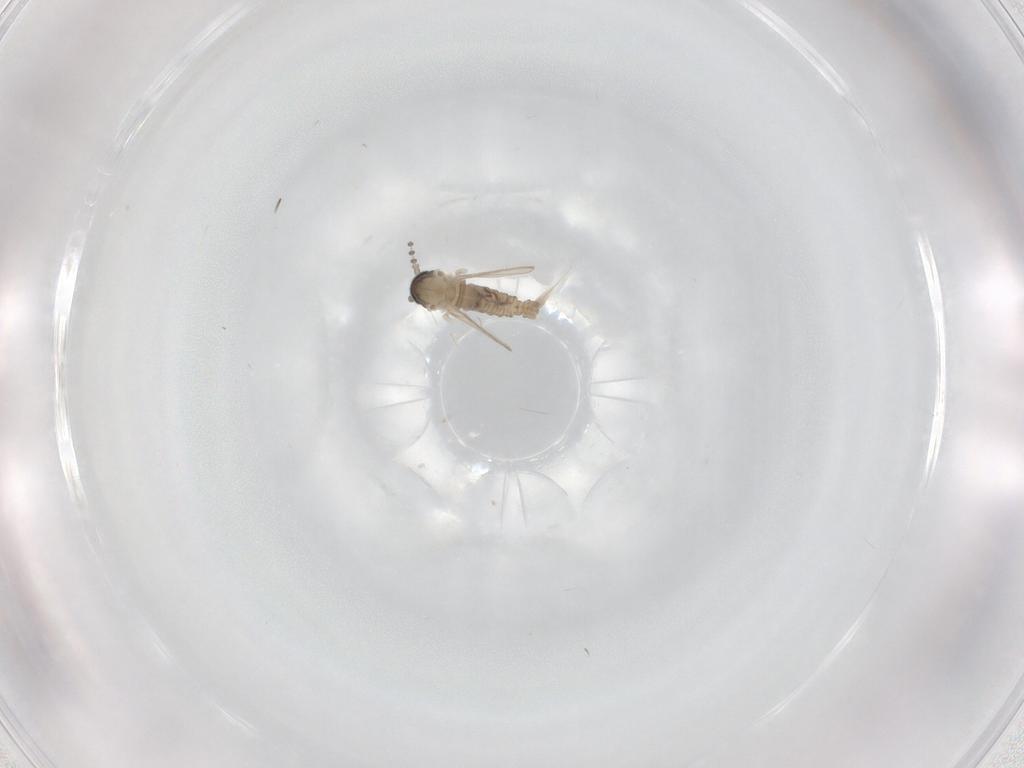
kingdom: Animalia
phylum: Arthropoda
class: Insecta
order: Diptera
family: Psychodidae
